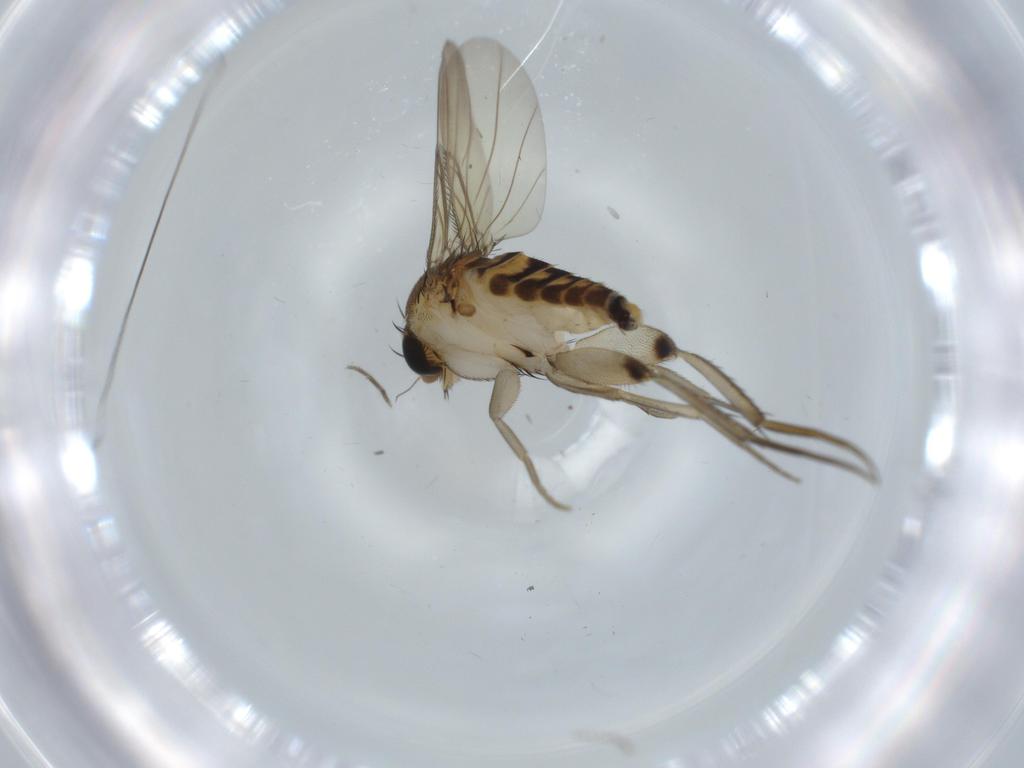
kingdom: Animalia
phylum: Arthropoda
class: Insecta
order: Diptera
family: Phoridae
